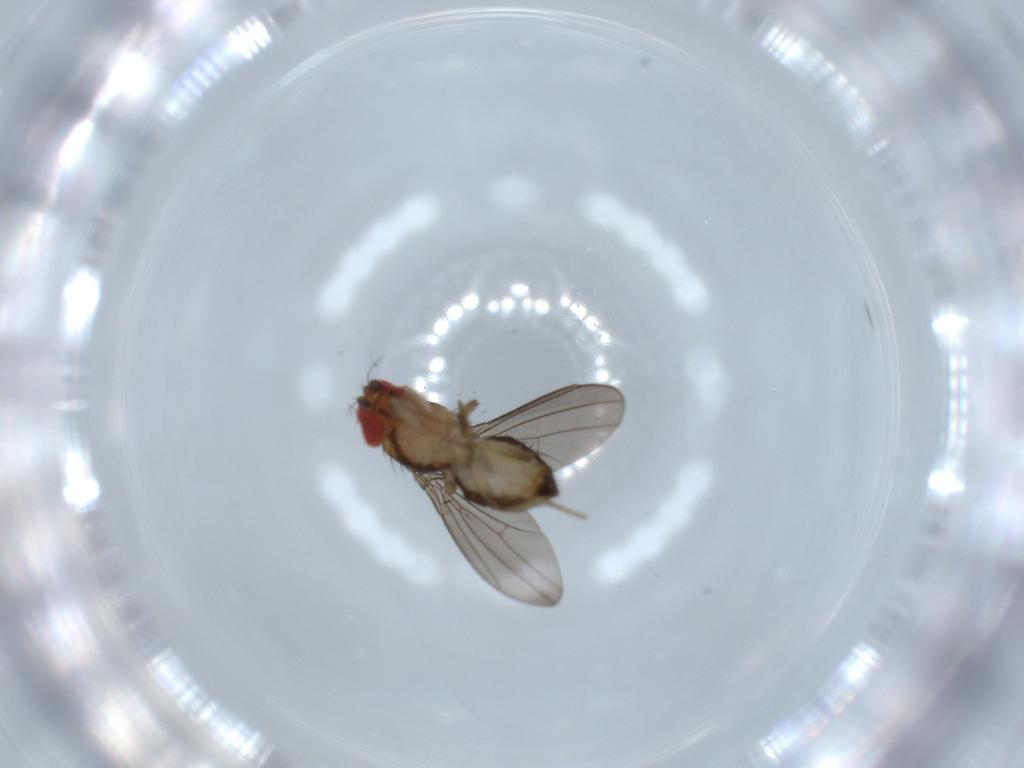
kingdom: Animalia
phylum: Arthropoda
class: Insecta
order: Diptera
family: Drosophilidae
